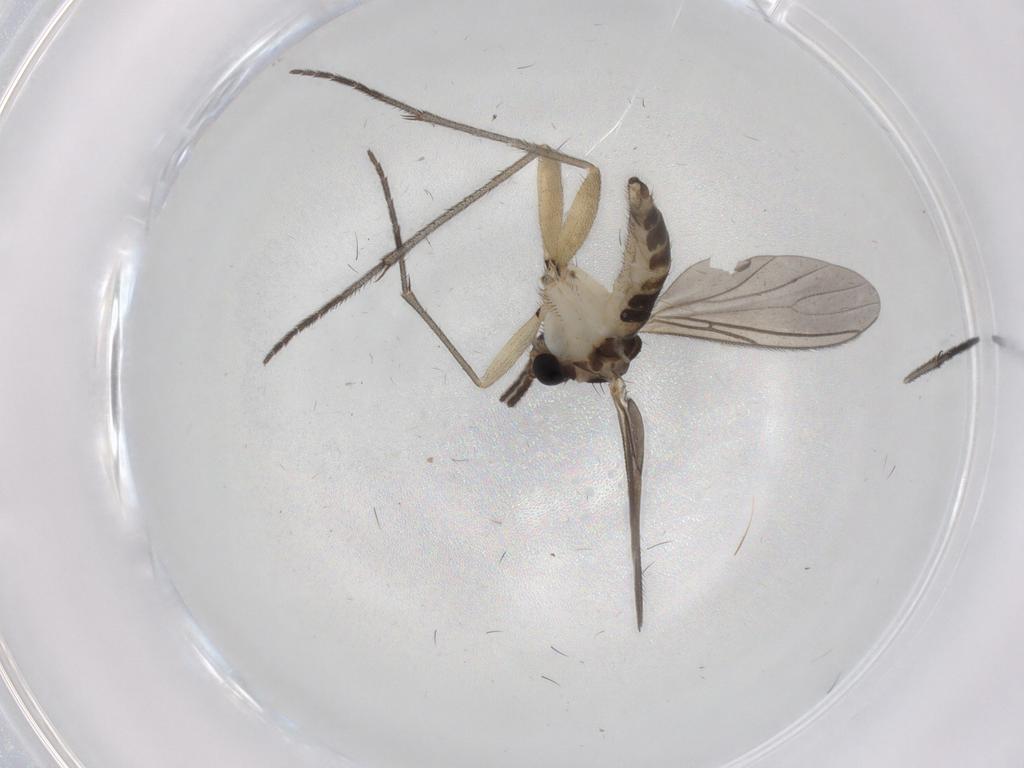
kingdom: Animalia
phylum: Arthropoda
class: Insecta
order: Diptera
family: Sciaridae
